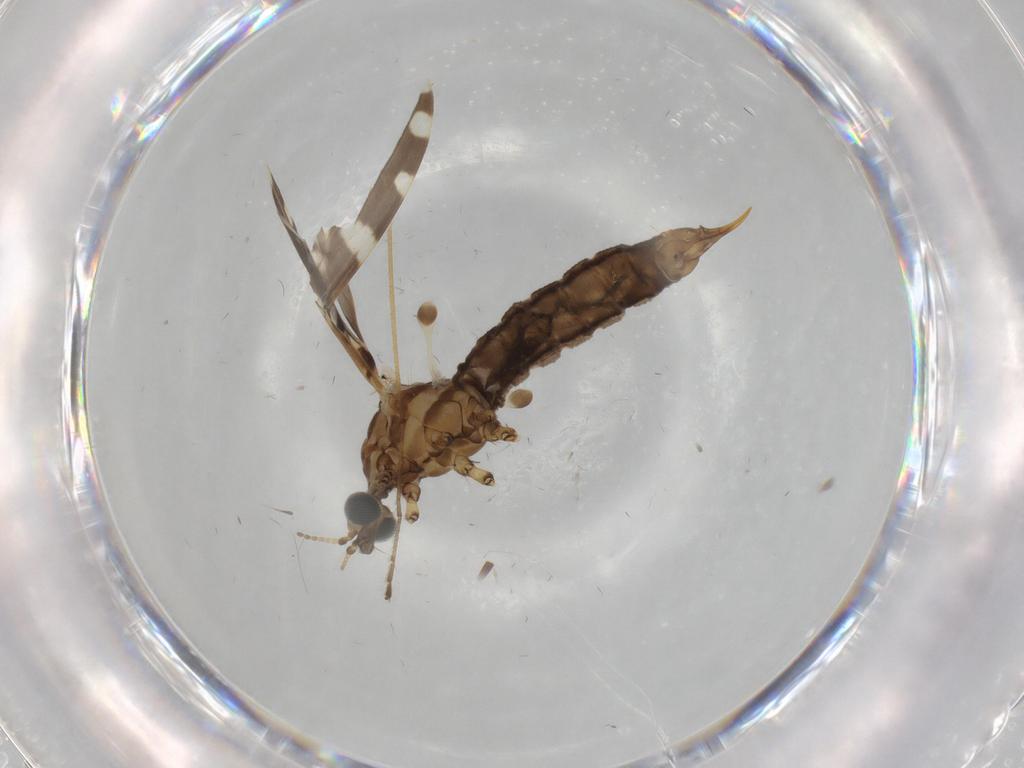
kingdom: Animalia
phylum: Arthropoda
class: Insecta
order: Diptera
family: Cecidomyiidae
